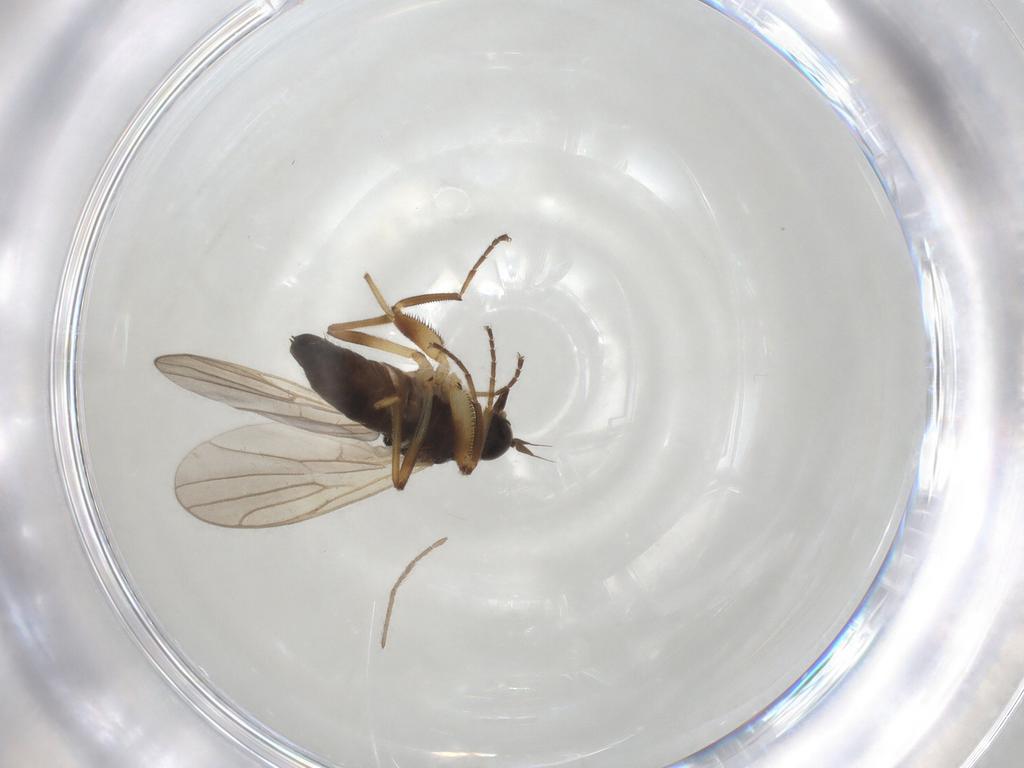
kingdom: Animalia
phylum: Arthropoda
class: Insecta
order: Diptera
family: Hybotidae
